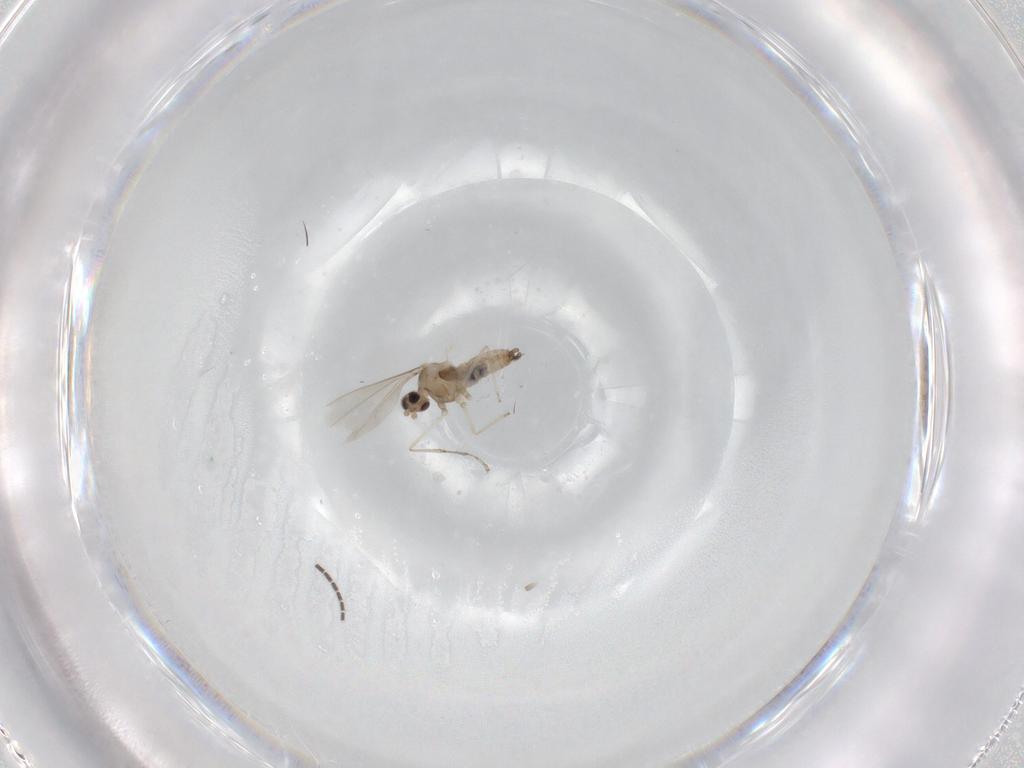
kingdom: Animalia
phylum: Arthropoda
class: Insecta
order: Diptera
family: Cecidomyiidae
